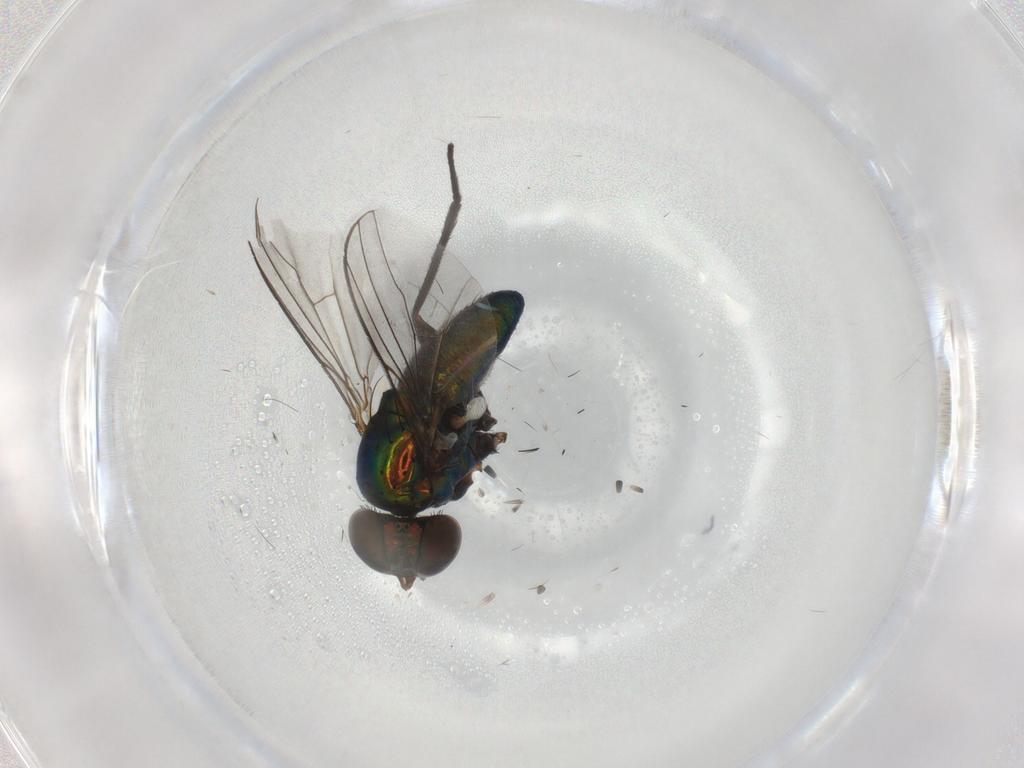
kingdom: Animalia
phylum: Arthropoda
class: Insecta
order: Diptera
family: Dolichopodidae
